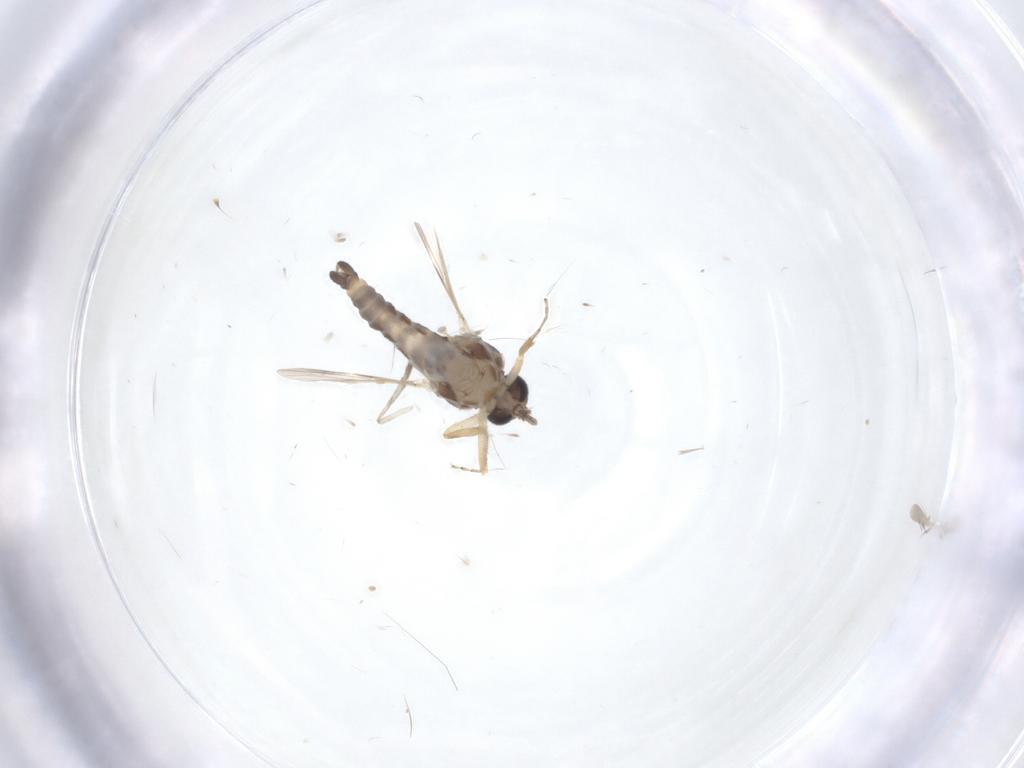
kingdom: Animalia
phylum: Arthropoda
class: Insecta
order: Diptera
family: Ceratopogonidae
